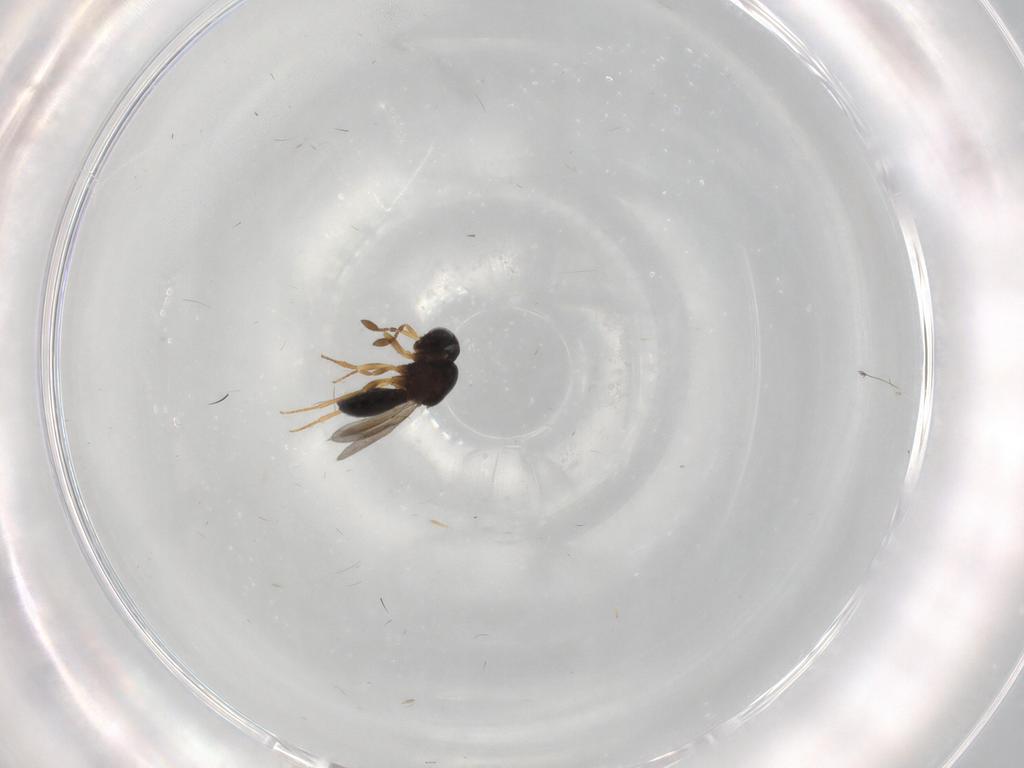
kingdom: Animalia
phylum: Arthropoda
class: Insecta
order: Hymenoptera
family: Scelionidae
